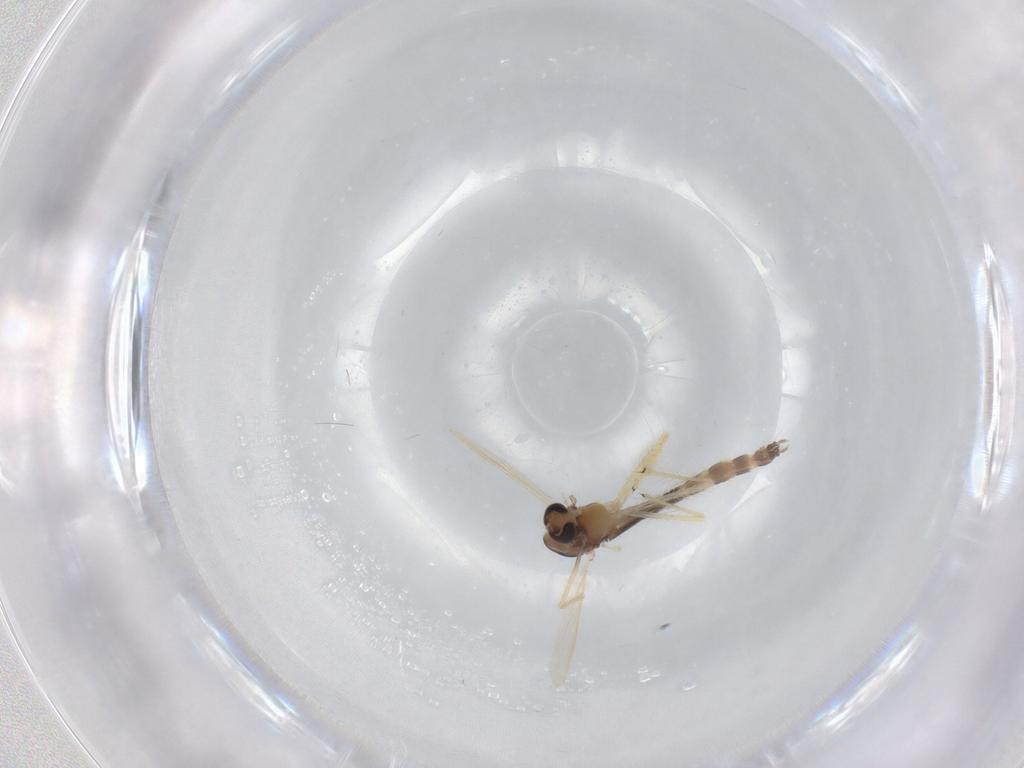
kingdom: Animalia
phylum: Arthropoda
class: Insecta
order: Diptera
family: Chironomidae
